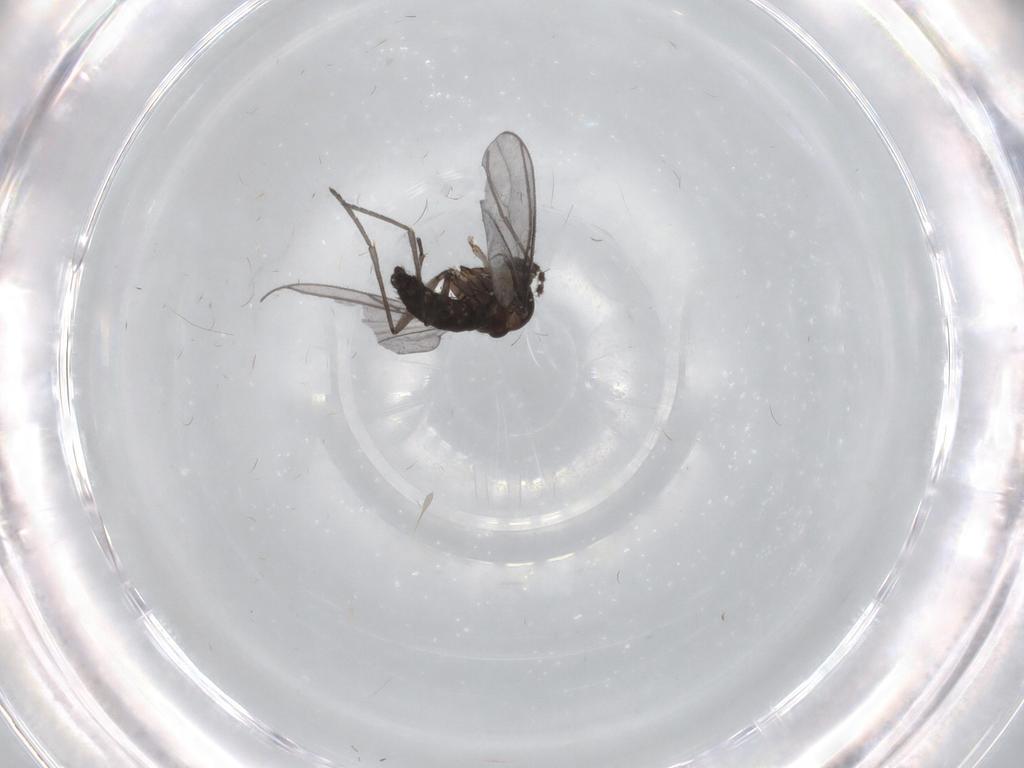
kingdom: Animalia
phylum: Arthropoda
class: Insecta
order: Diptera
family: Sciaridae
